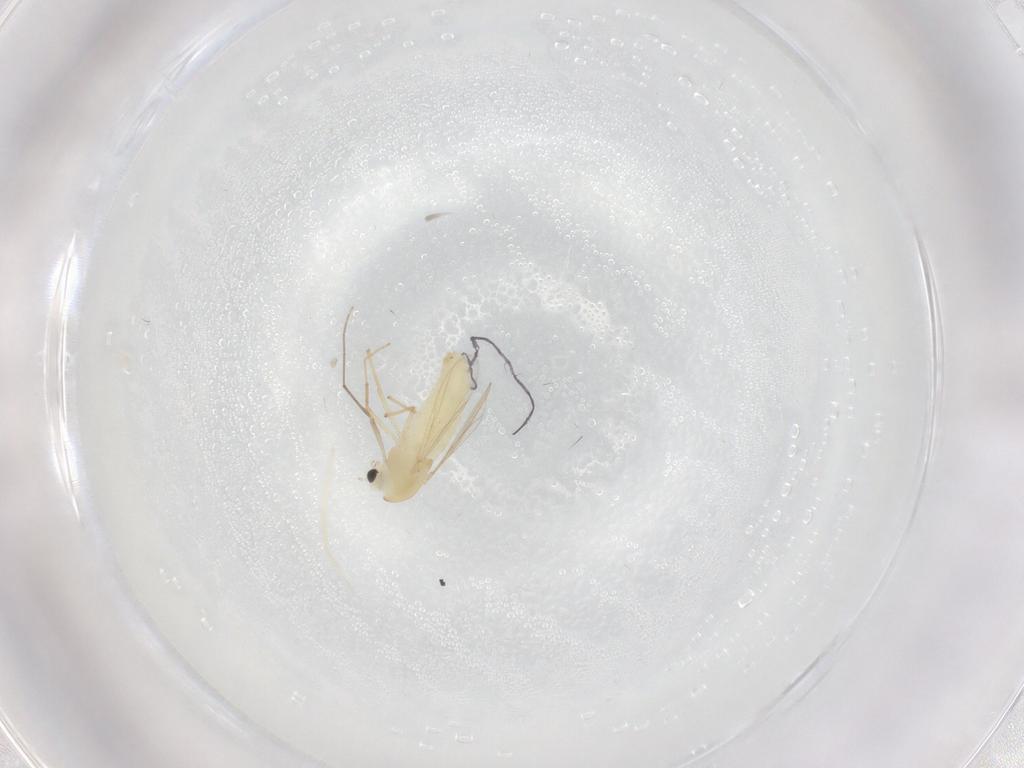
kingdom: Animalia
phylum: Arthropoda
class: Insecta
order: Diptera
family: Chironomidae
